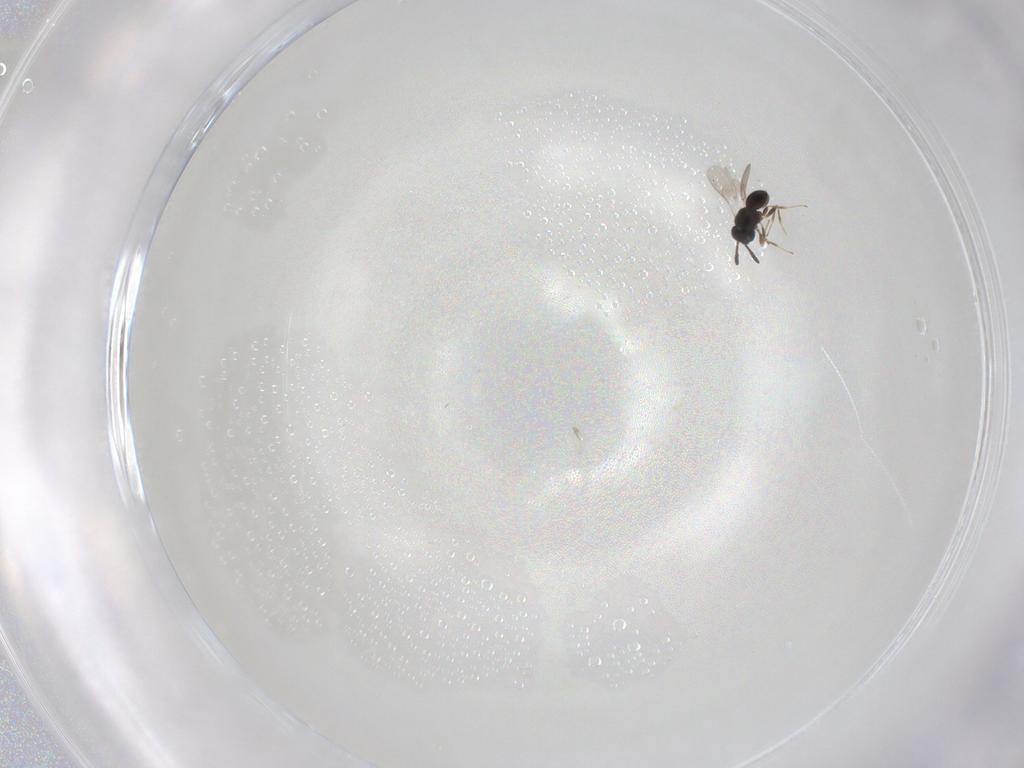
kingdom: Animalia
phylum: Arthropoda
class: Insecta
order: Hymenoptera
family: Scelionidae
